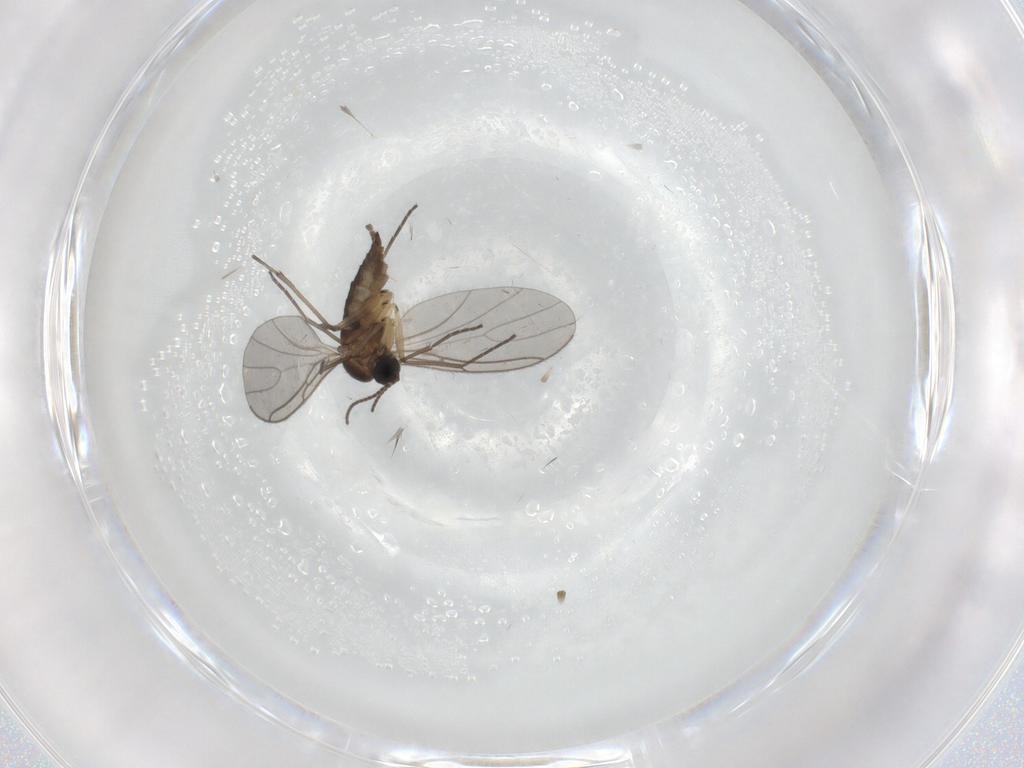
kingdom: Animalia
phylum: Arthropoda
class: Insecta
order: Diptera
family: Sciaridae
